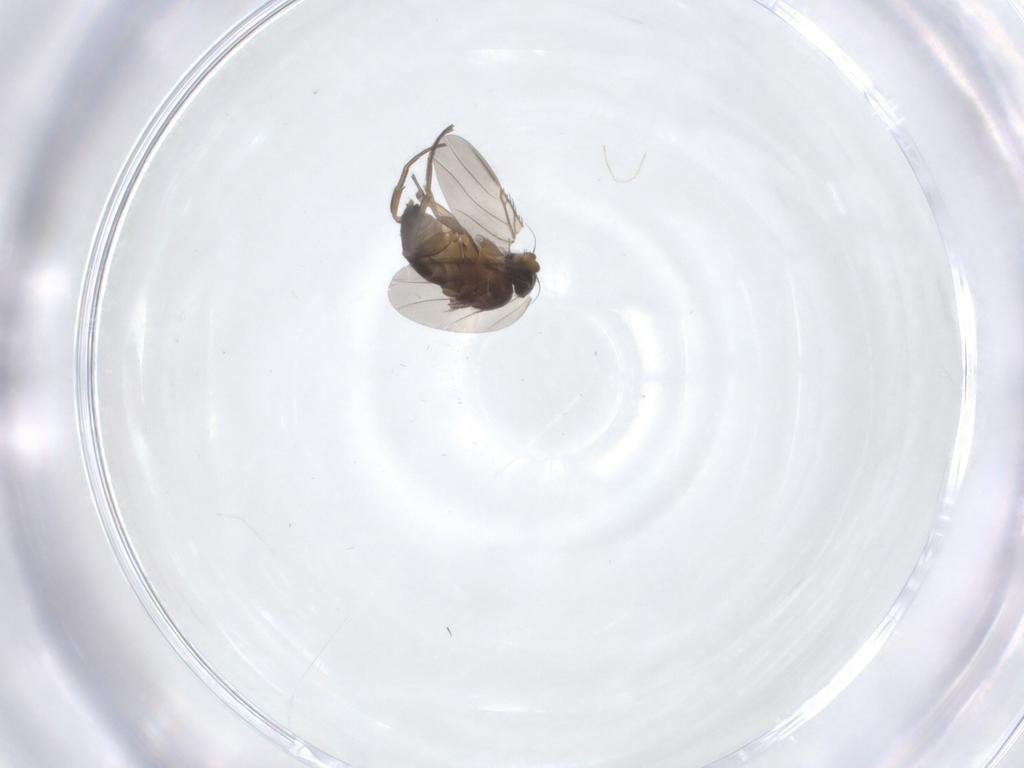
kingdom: Animalia
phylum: Arthropoda
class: Insecta
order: Diptera
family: Phoridae
